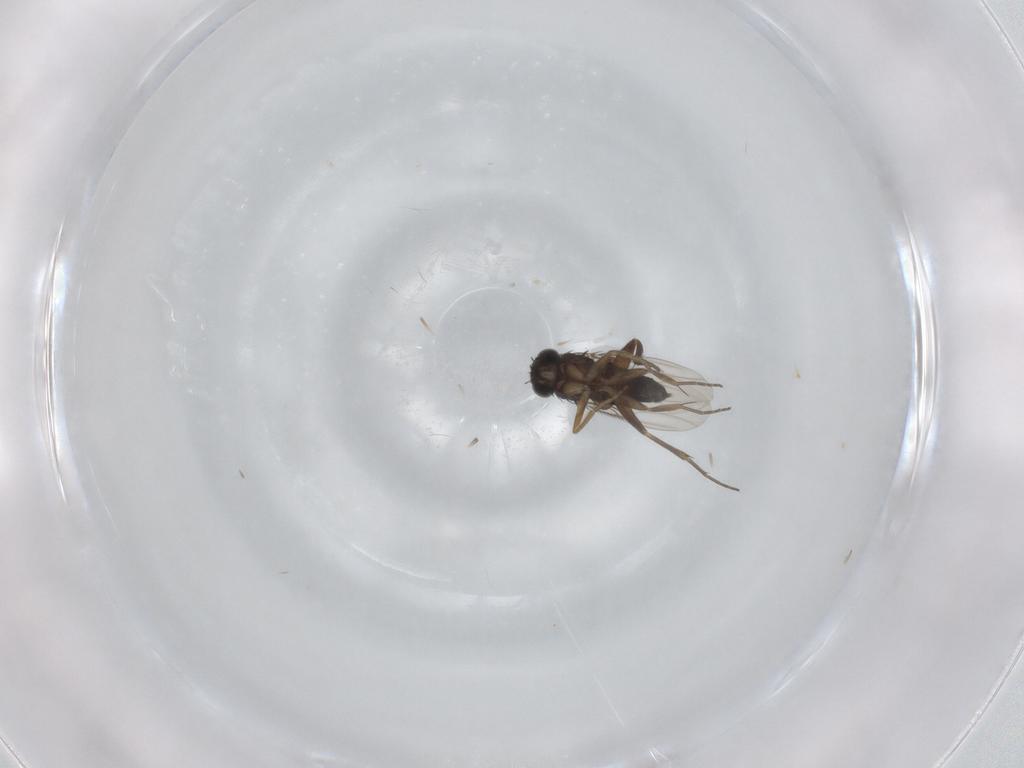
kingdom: Animalia
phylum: Arthropoda
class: Insecta
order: Diptera
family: Phoridae
